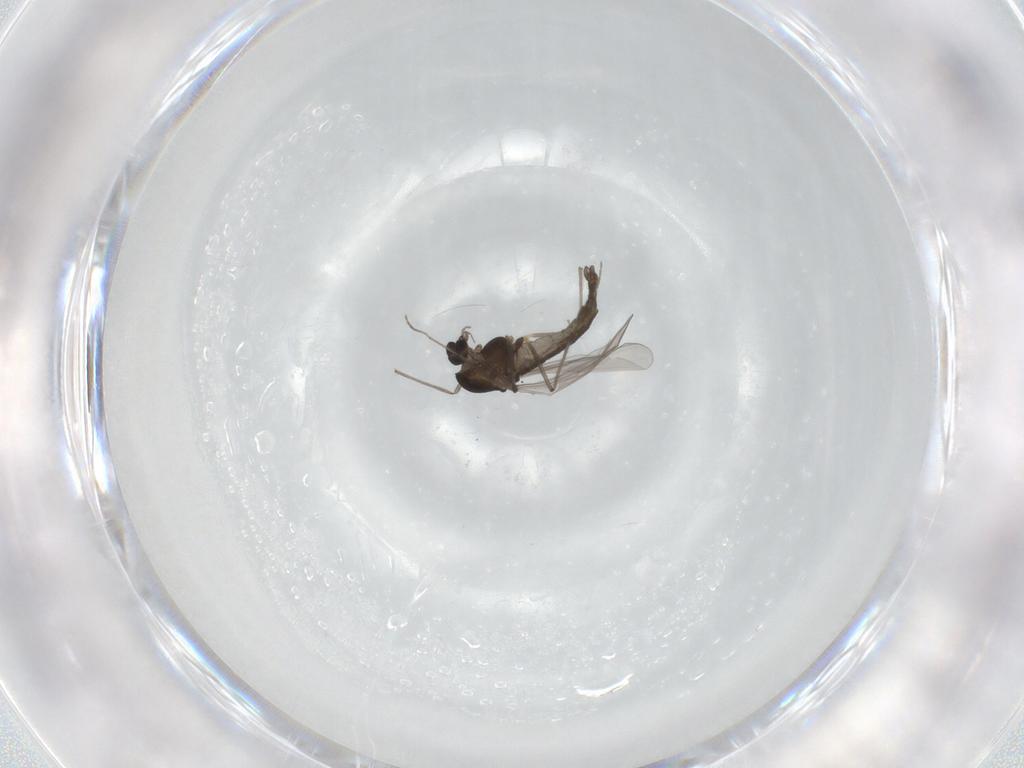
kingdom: Animalia
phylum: Arthropoda
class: Insecta
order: Diptera
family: Chironomidae
